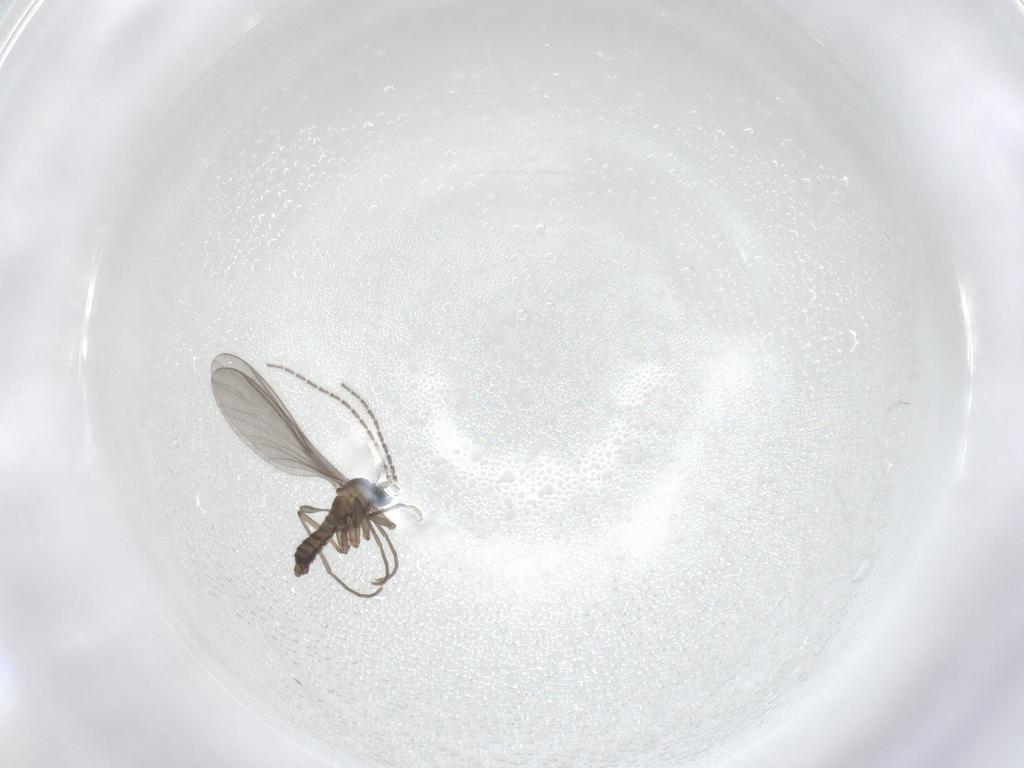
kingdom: Animalia
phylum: Arthropoda
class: Insecta
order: Diptera
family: Sciaridae
